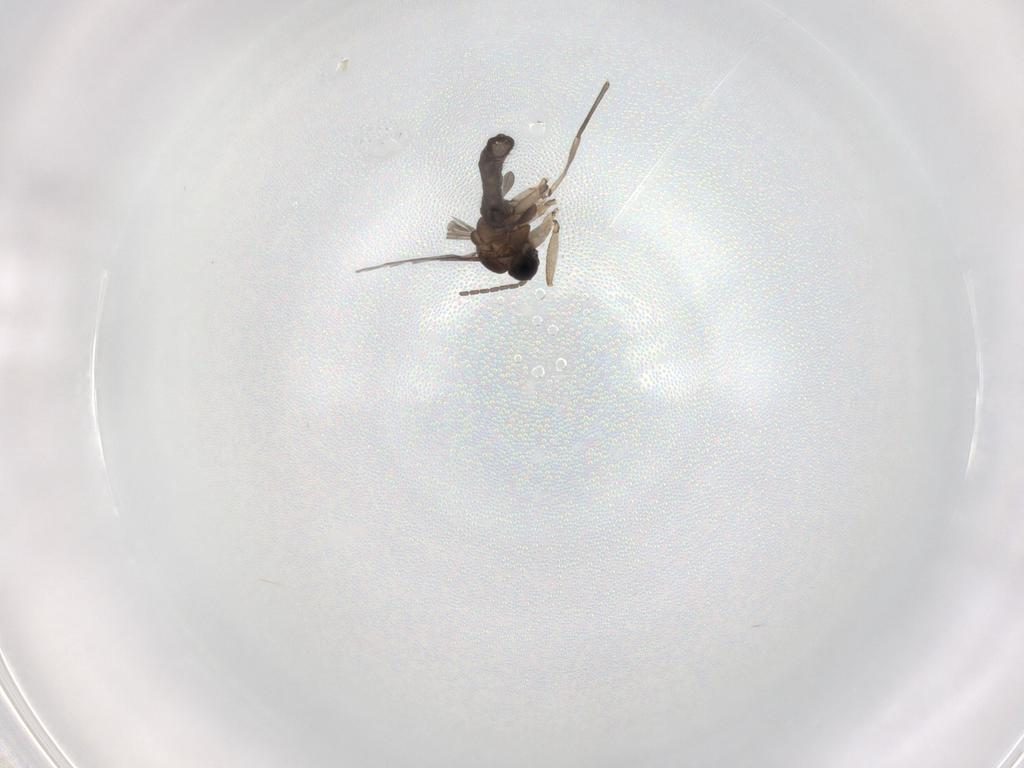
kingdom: Animalia
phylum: Arthropoda
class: Insecta
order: Diptera
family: Sciaridae
